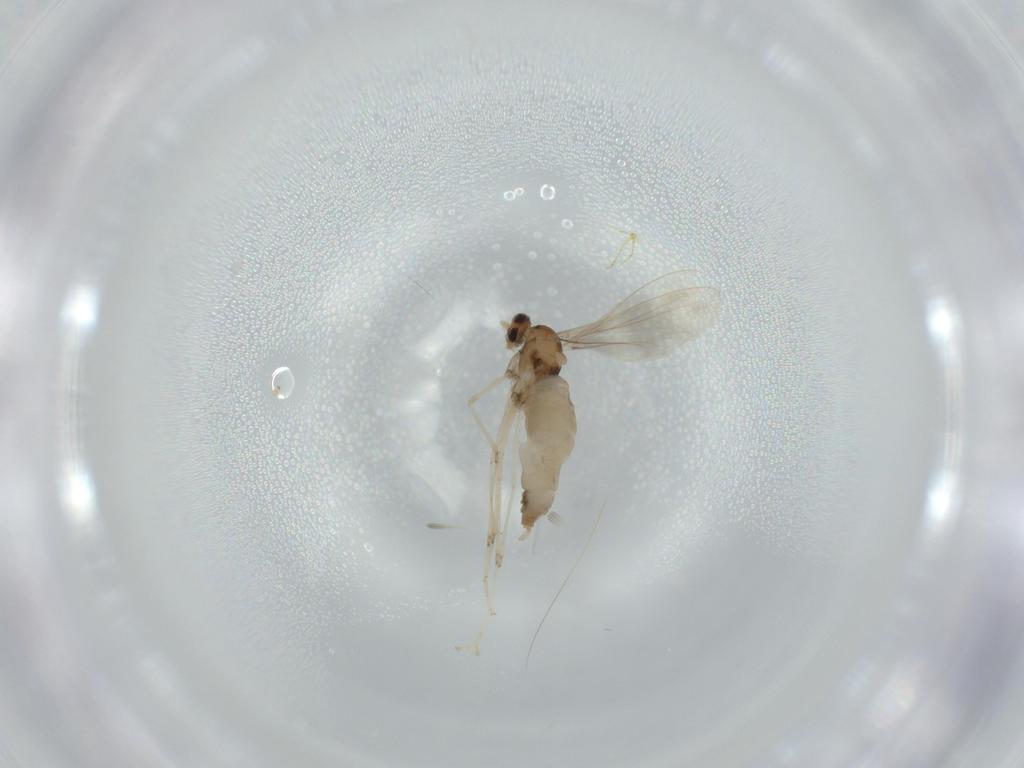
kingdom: Animalia
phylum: Arthropoda
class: Insecta
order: Diptera
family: Cecidomyiidae
